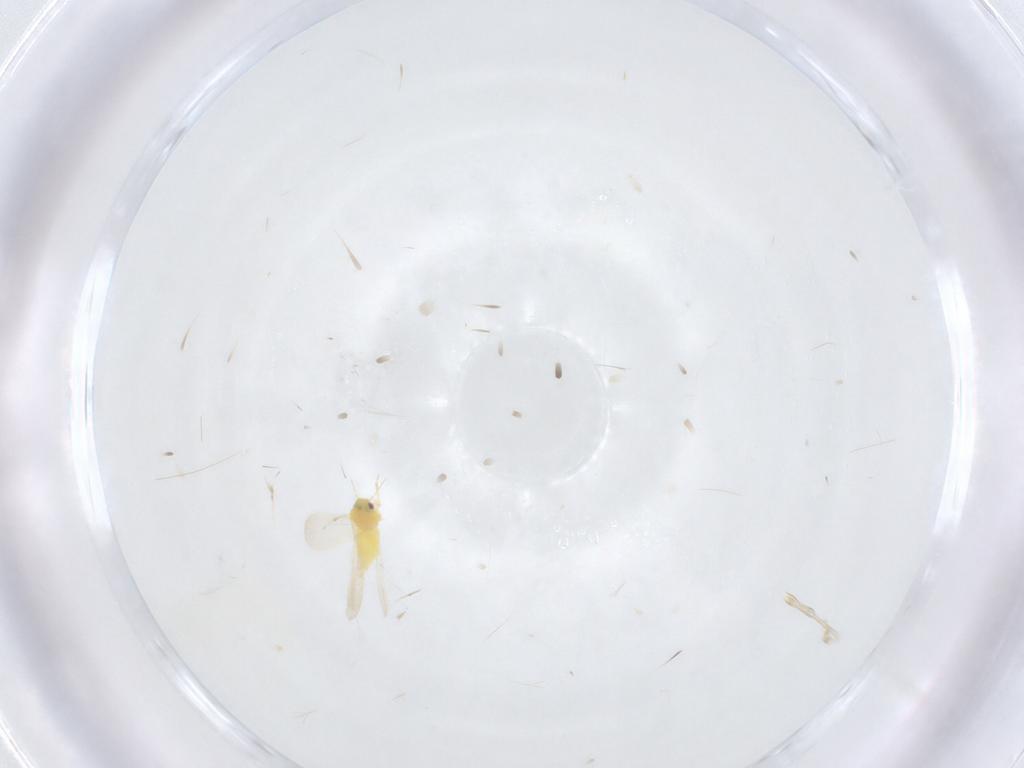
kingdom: Animalia
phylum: Arthropoda
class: Insecta
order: Hemiptera
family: Aleyrodidae
